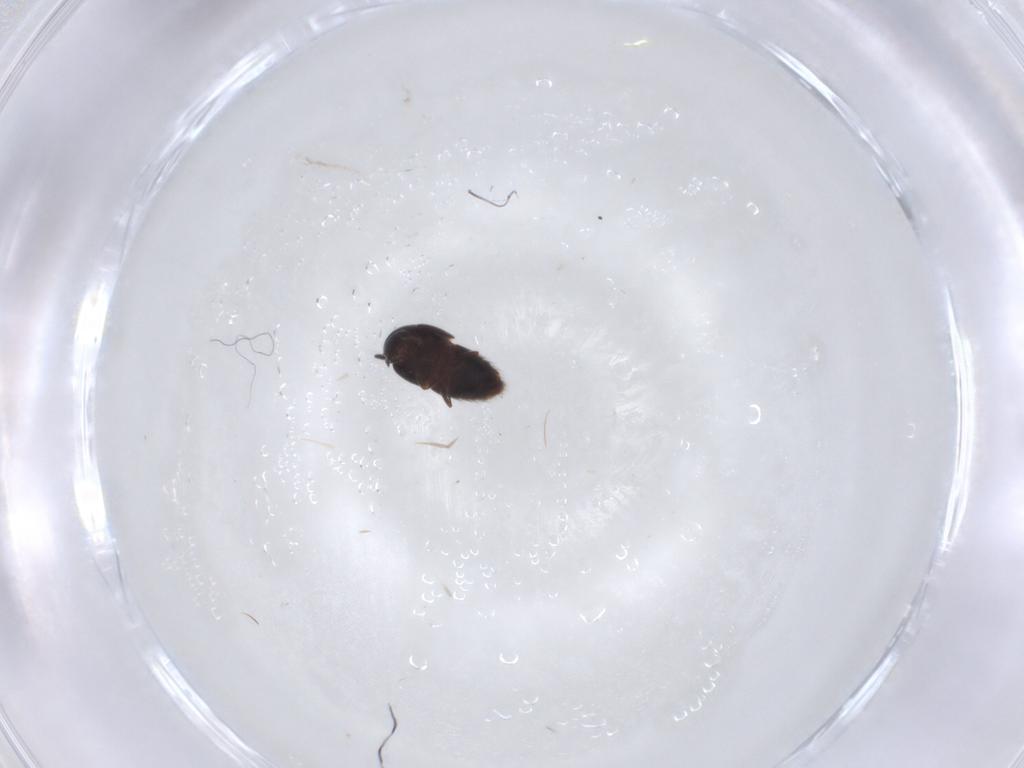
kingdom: Animalia
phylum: Arthropoda
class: Insecta
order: Coleoptera
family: Staphylinidae
